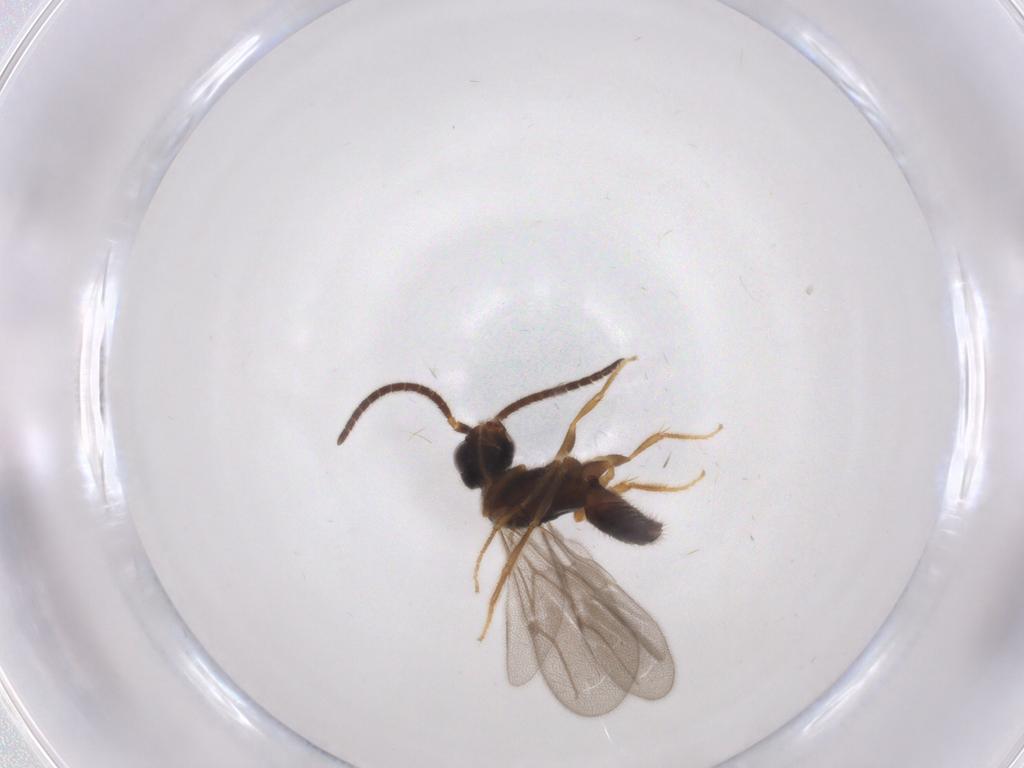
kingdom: Animalia
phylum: Arthropoda
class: Insecta
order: Hymenoptera
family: Bethylidae
